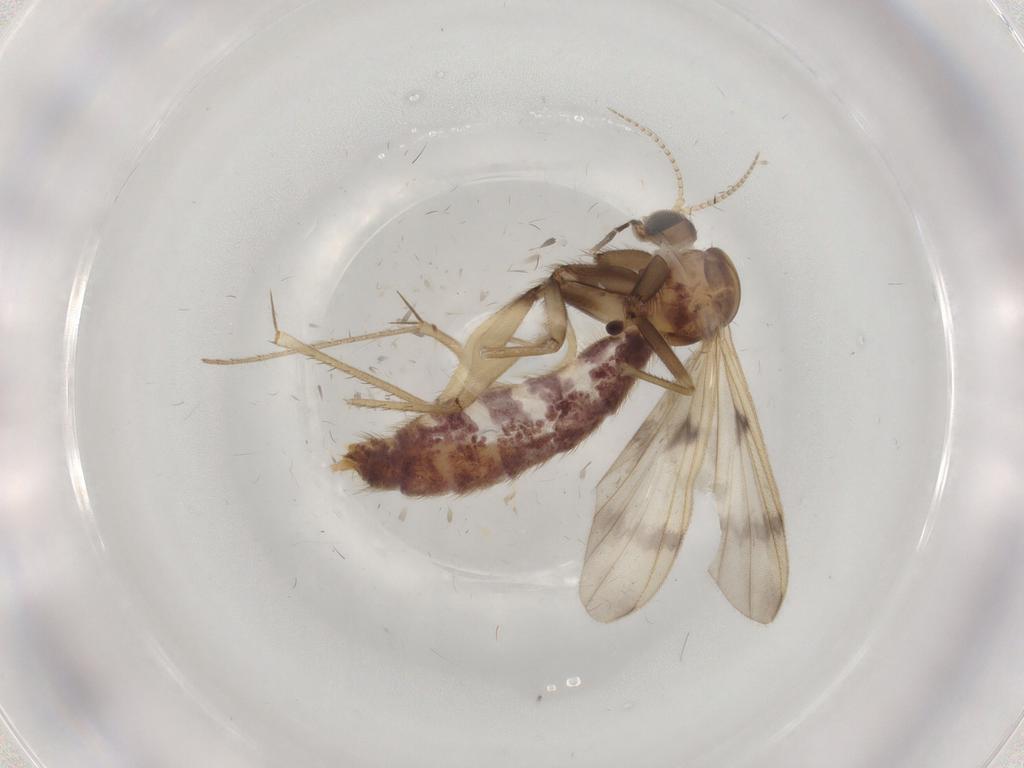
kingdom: Animalia
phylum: Arthropoda
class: Insecta
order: Diptera
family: Mycetophilidae
